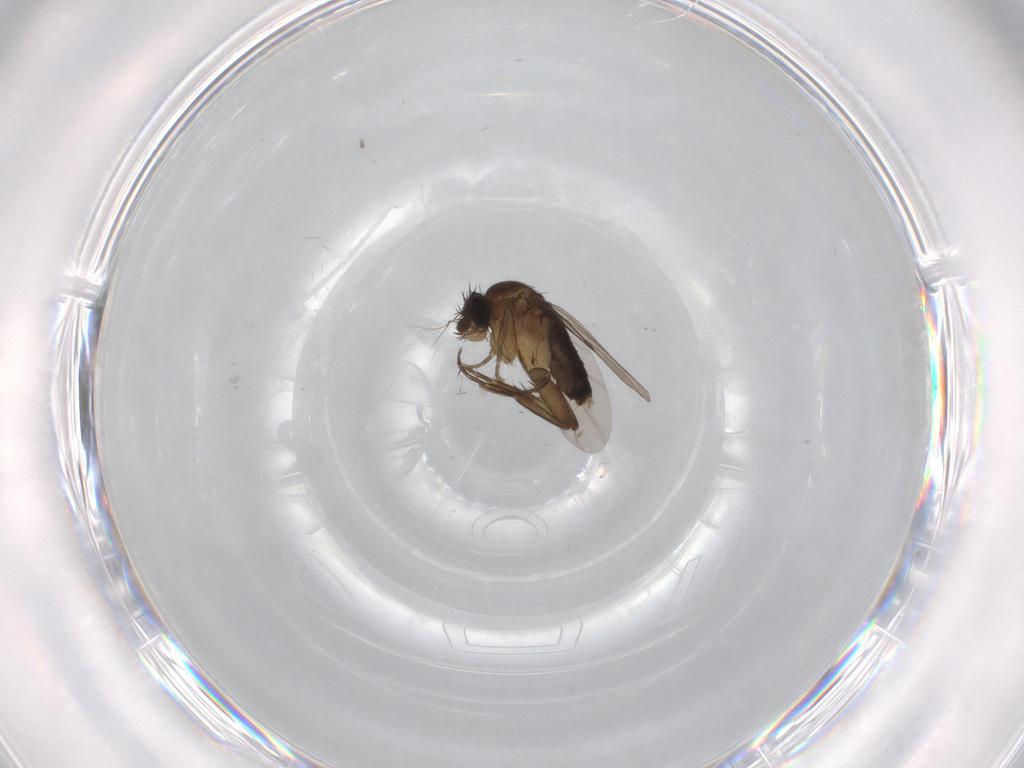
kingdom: Animalia
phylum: Arthropoda
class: Insecta
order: Diptera
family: Phoridae
